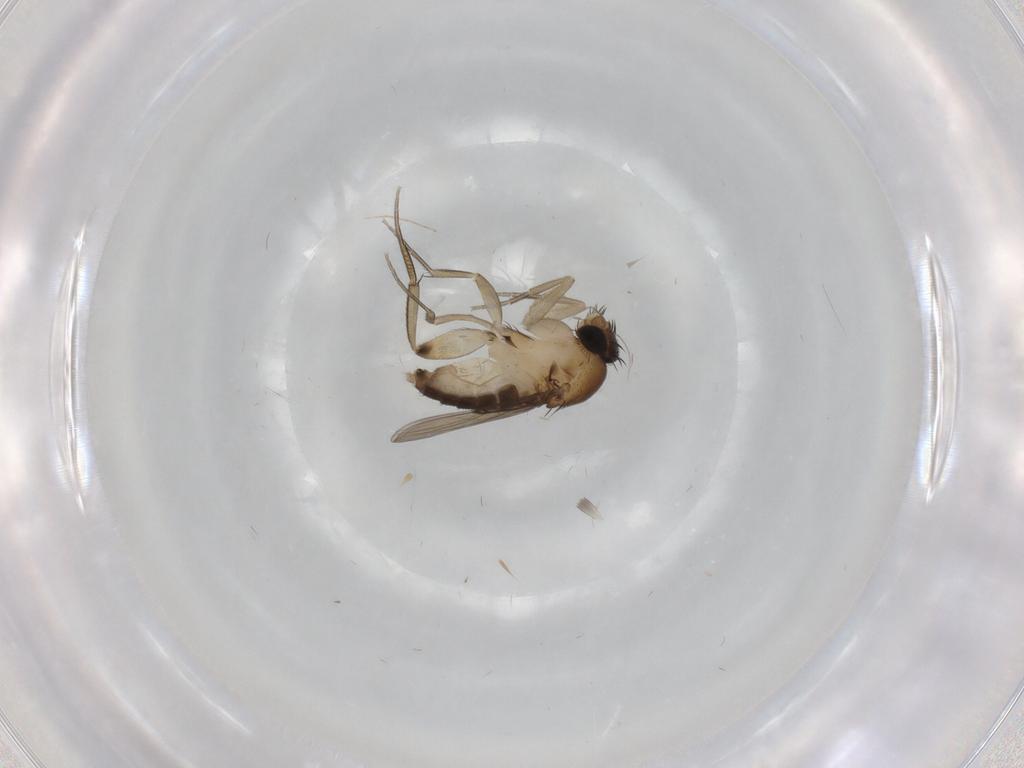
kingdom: Animalia
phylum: Arthropoda
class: Insecta
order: Diptera
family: Phoridae
